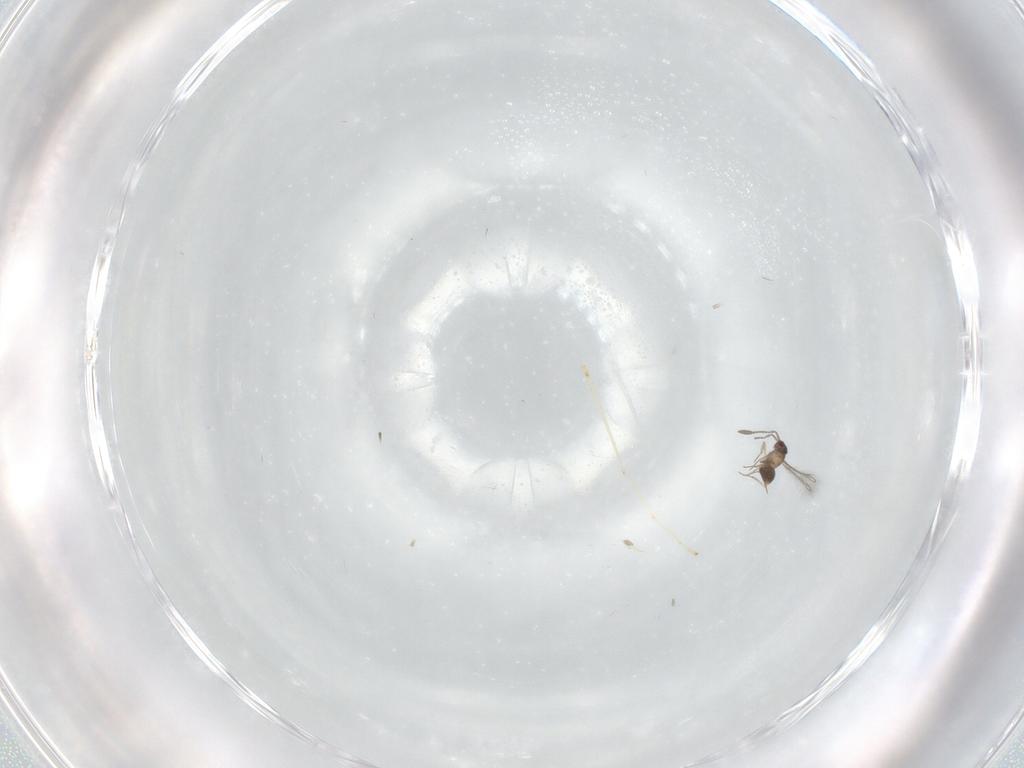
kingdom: Animalia
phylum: Arthropoda
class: Insecta
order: Hymenoptera
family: Mymaridae
